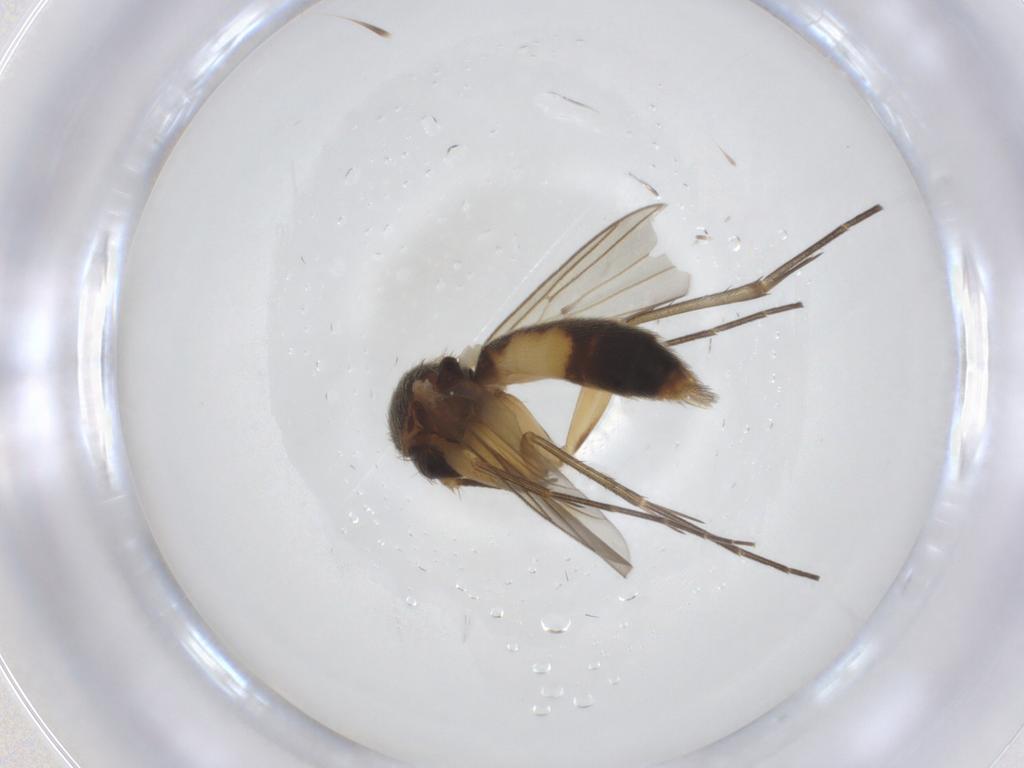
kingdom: Animalia
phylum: Arthropoda
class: Insecta
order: Diptera
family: Mycetophilidae
